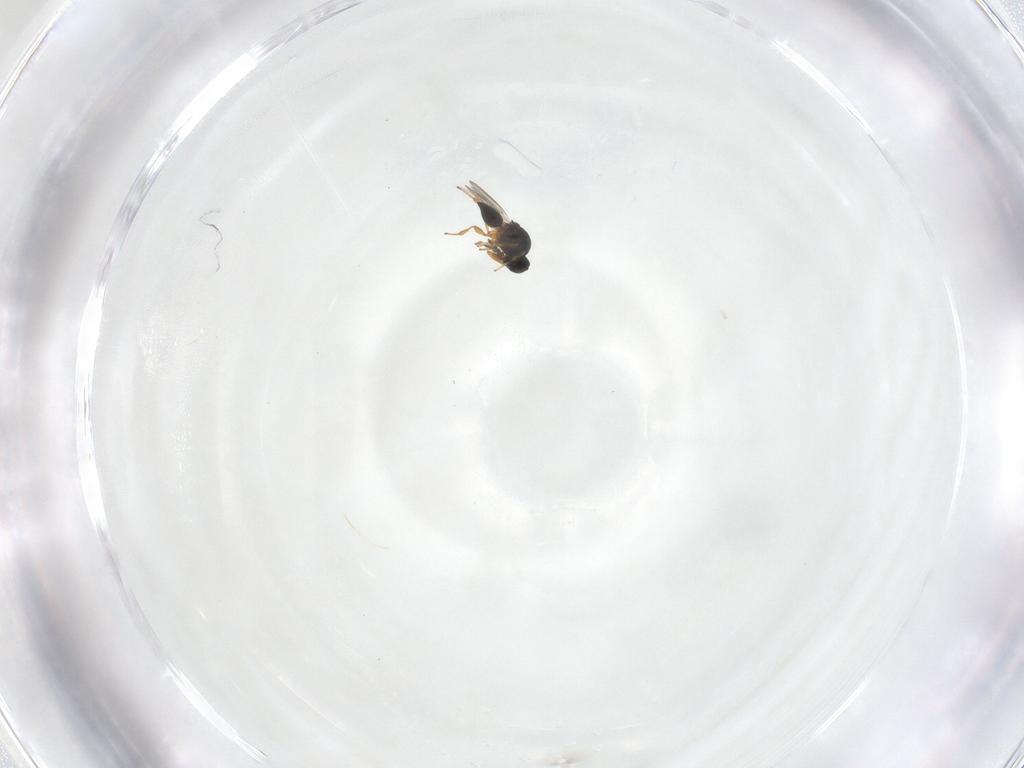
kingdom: Animalia
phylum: Arthropoda
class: Insecta
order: Hymenoptera
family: Platygastridae
